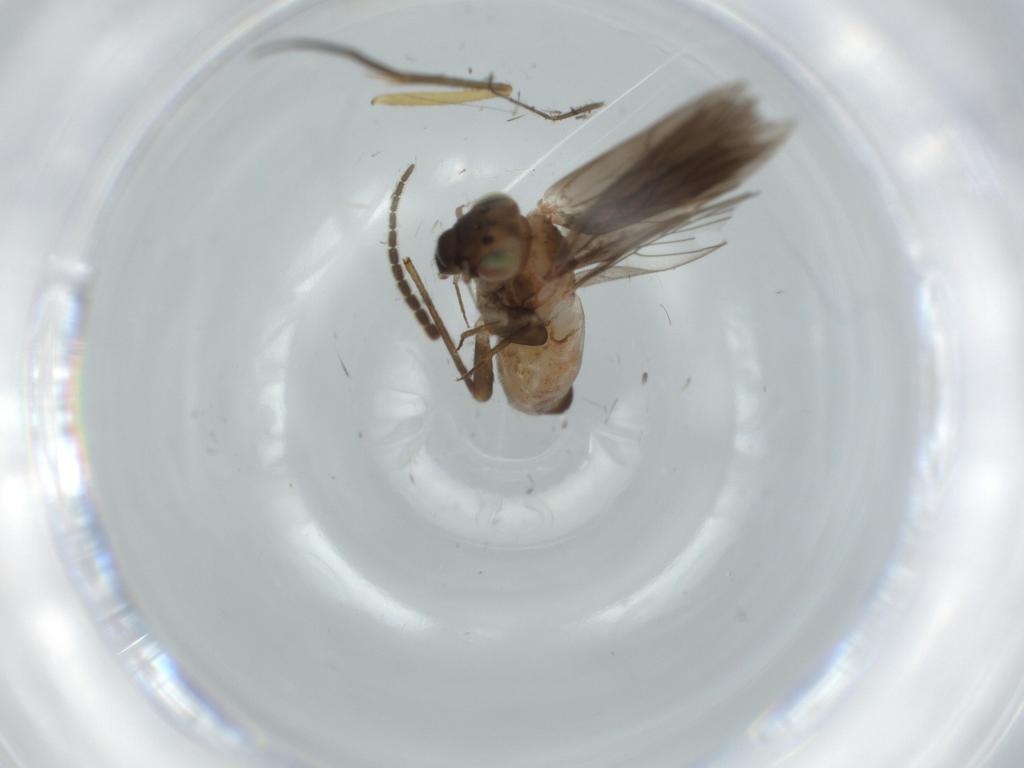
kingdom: Animalia
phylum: Arthropoda
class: Insecta
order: Psocodea
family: Lepidopsocidae
